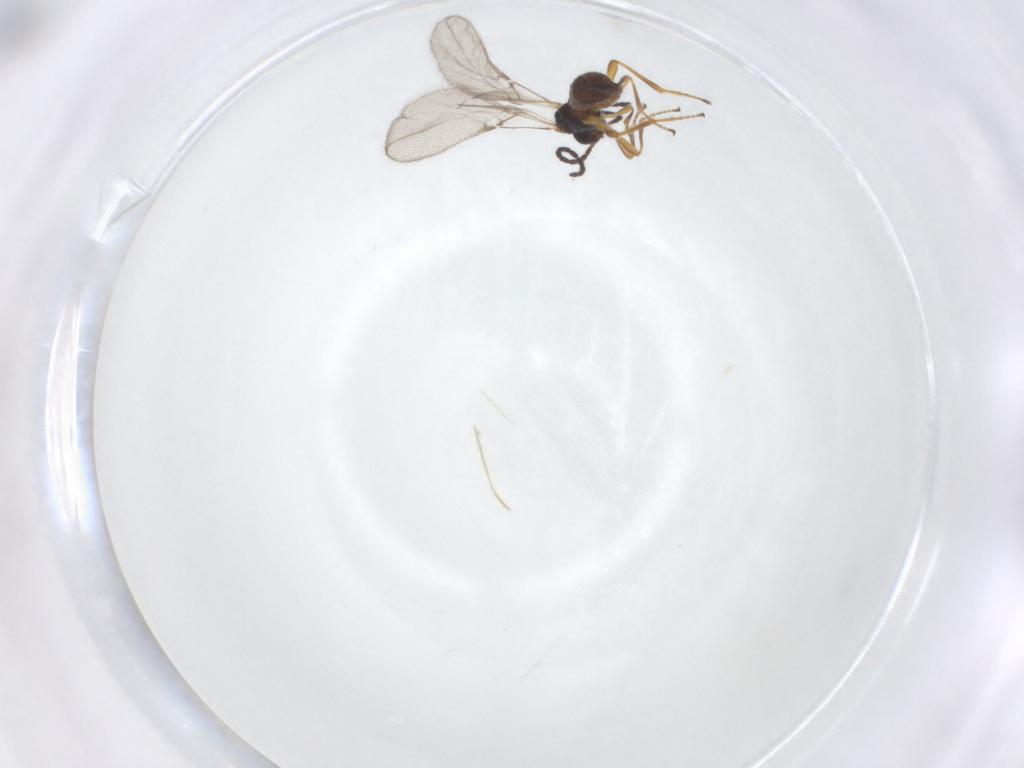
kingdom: Animalia
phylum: Arthropoda
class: Insecta
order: Hymenoptera
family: Braconidae
